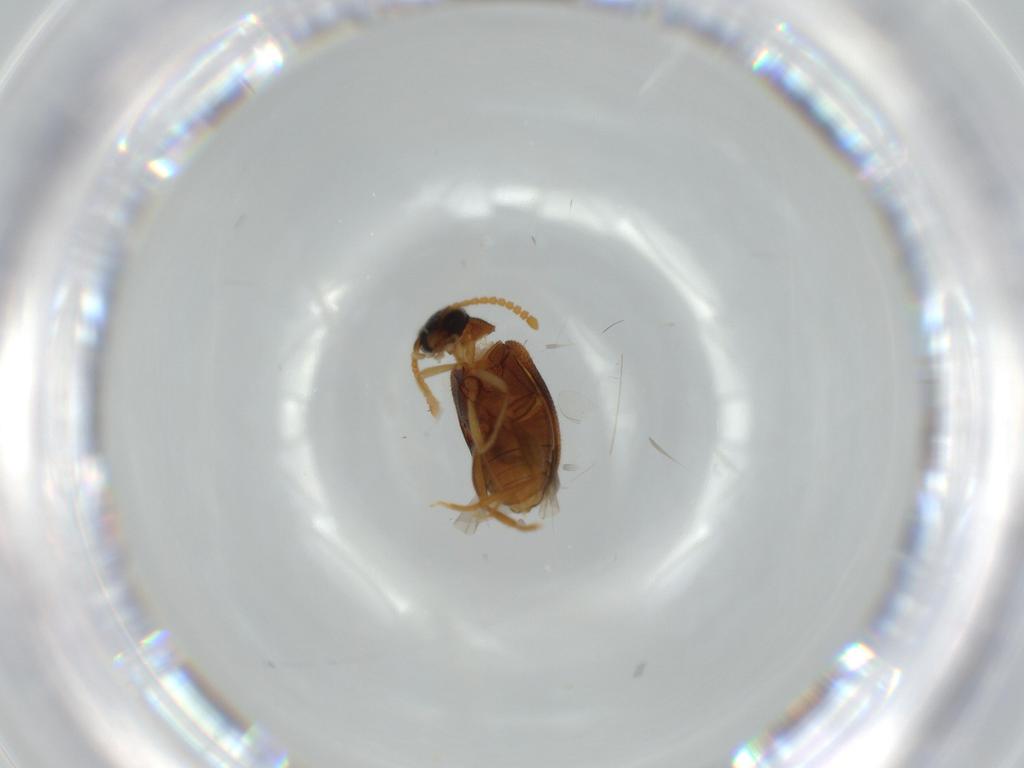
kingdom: Animalia
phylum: Arthropoda
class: Insecta
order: Coleoptera
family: Aderidae
